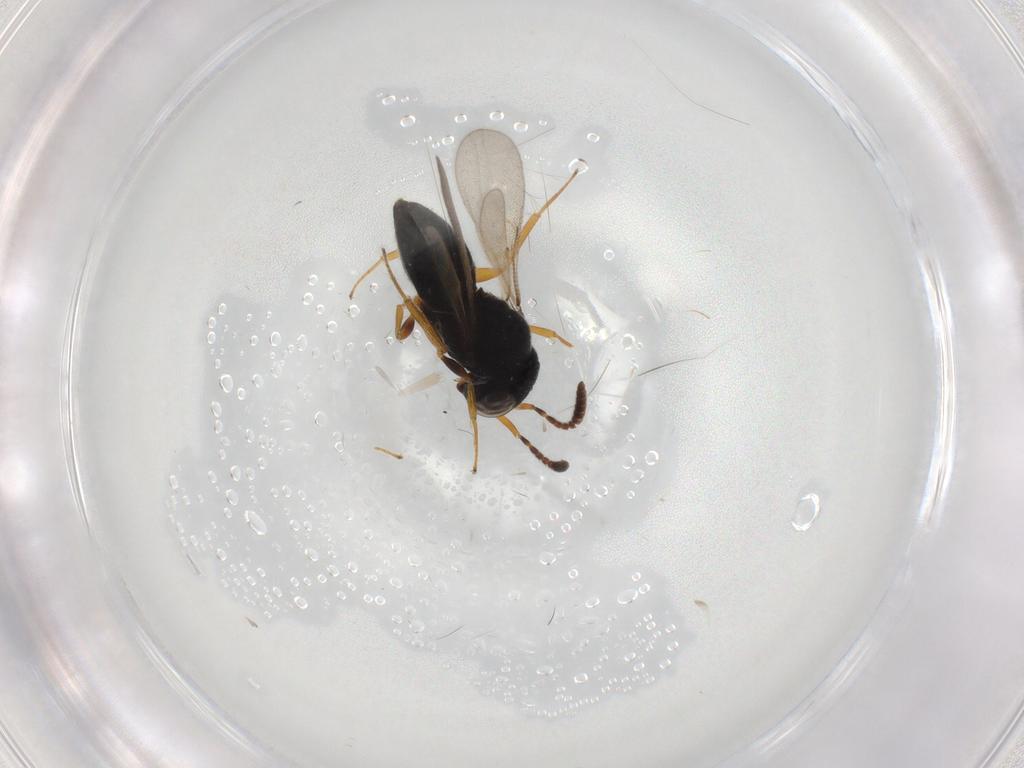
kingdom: Animalia
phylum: Arthropoda
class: Insecta
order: Hymenoptera
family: Scelionidae
